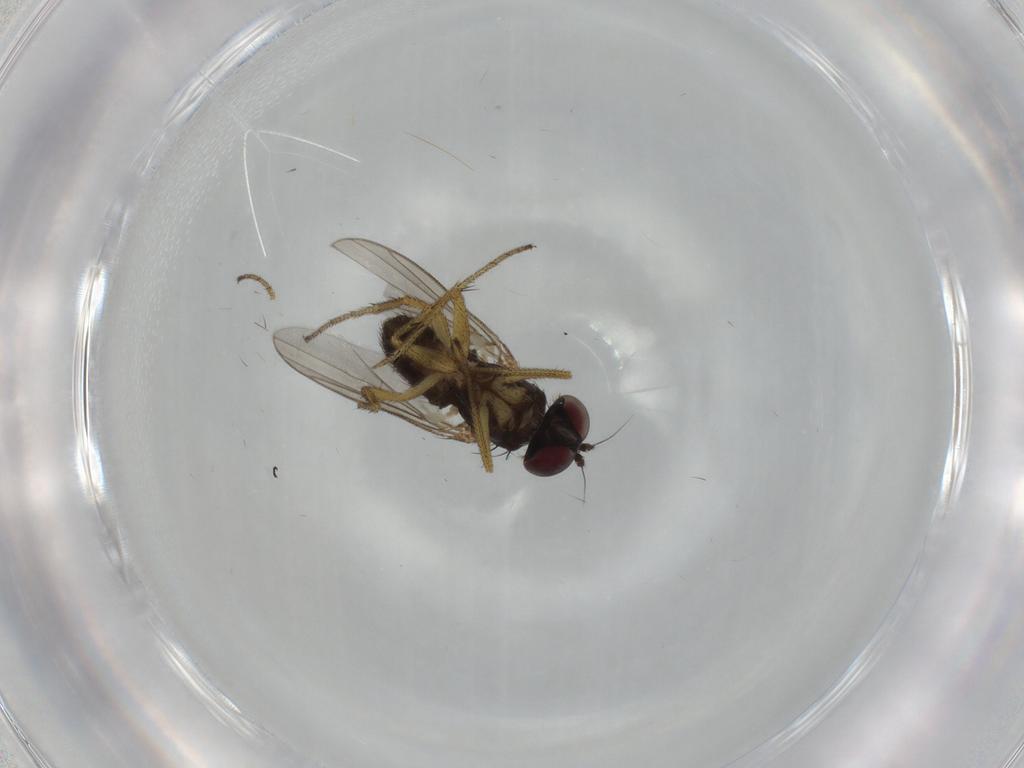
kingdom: Animalia
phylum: Arthropoda
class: Insecta
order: Diptera
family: Dolichopodidae
